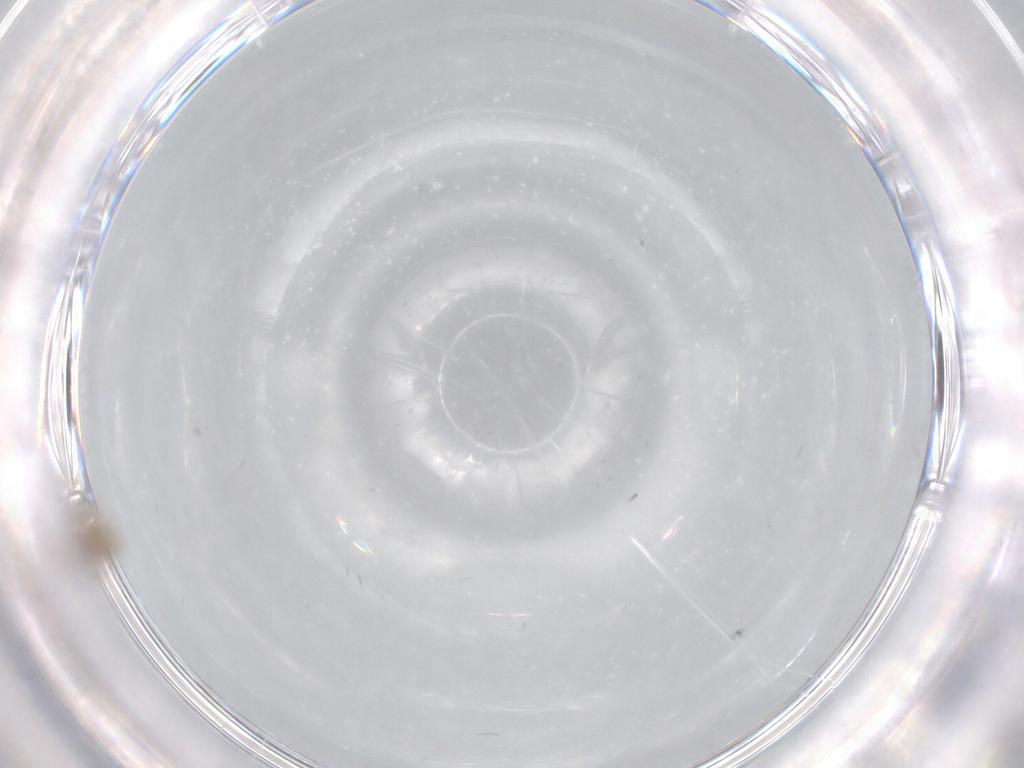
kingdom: Animalia
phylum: Arthropoda
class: Insecta
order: Diptera
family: Cecidomyiidae
